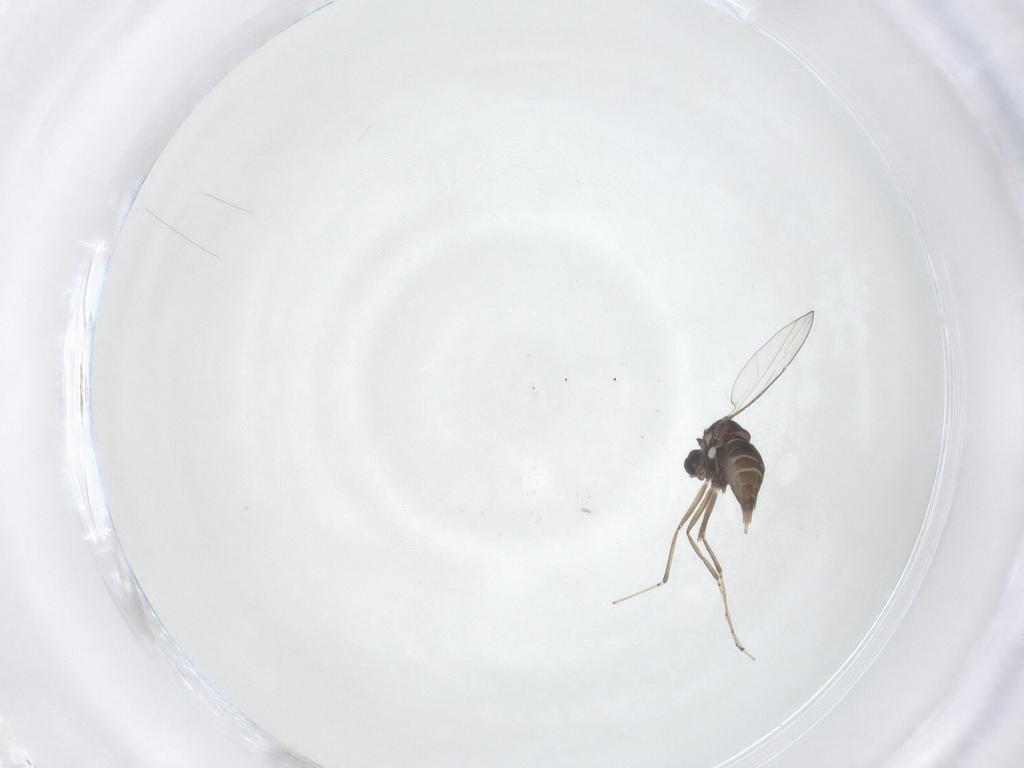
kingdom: Animalia
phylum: Arthropoda
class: Insecta
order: Diptera
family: Cecidomyiidae
